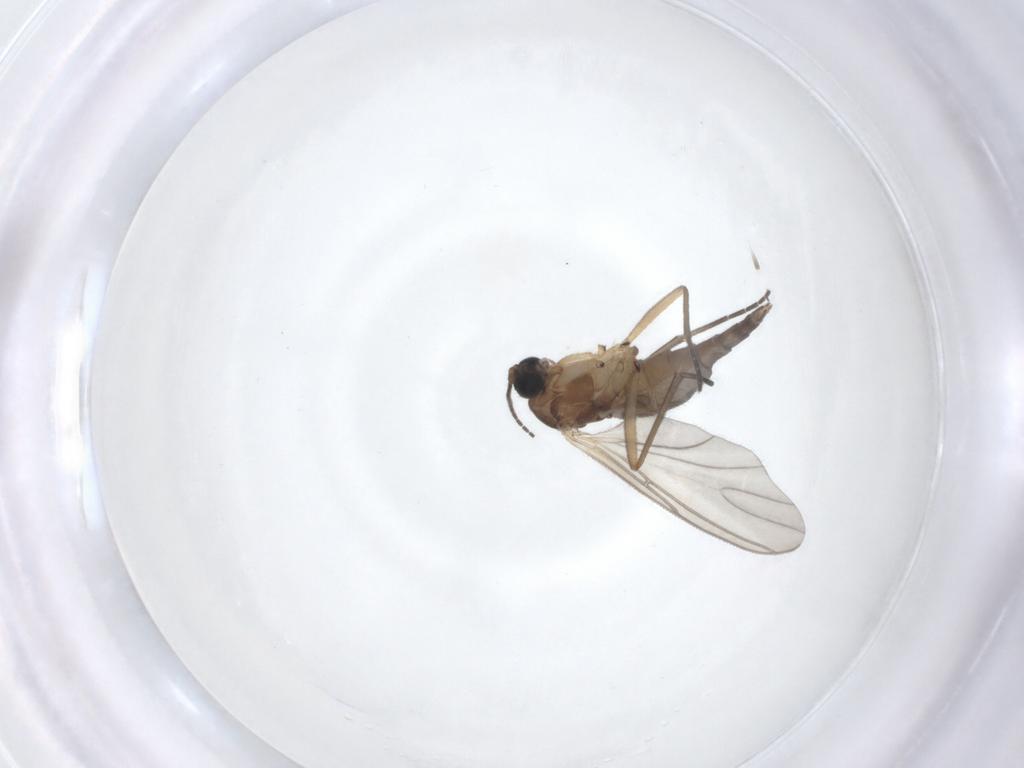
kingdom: Animalia
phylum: Arthropoda
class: Insecta
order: Diptera
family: Sciaridae
